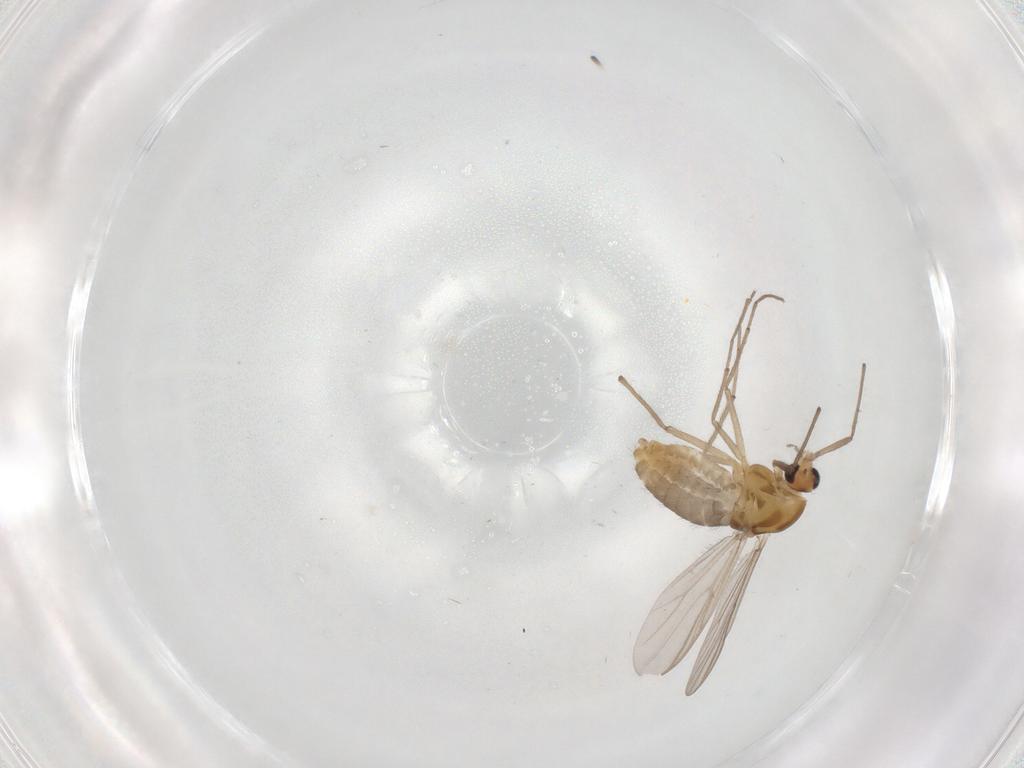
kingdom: Animalia
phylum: Arthropoda
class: Insecta
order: Diptera
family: Chironomidae
